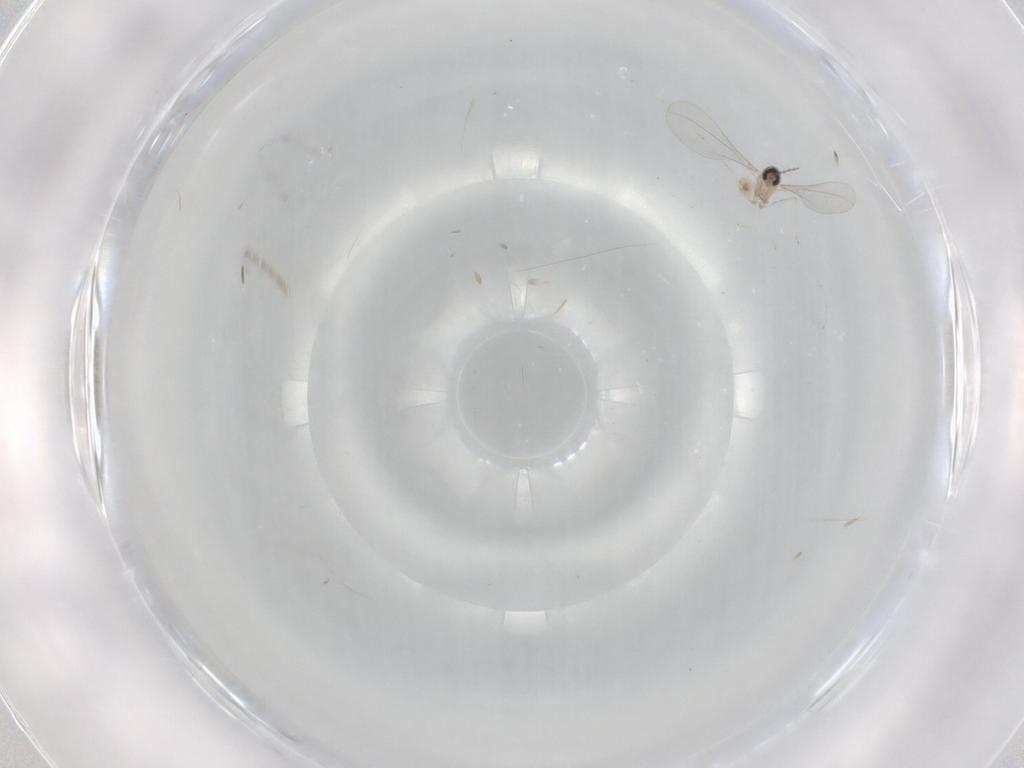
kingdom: Animalia
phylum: Arthropoda
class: Insecta
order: Diptera
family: Cecidomyiidae
